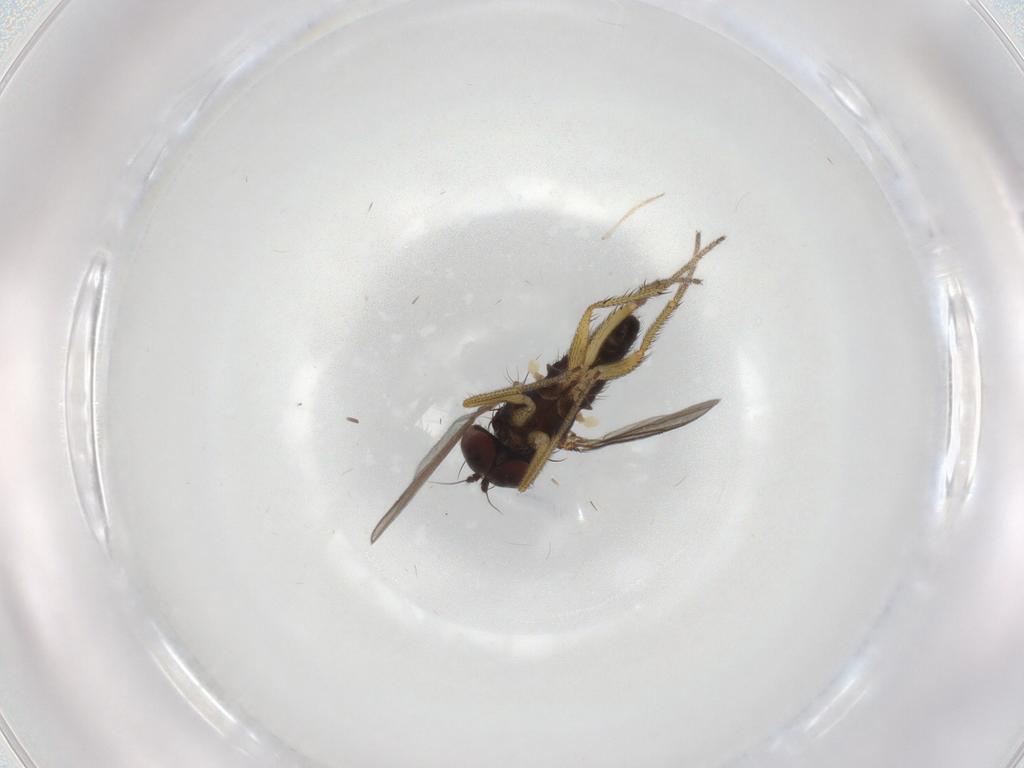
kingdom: Animalia
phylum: Arthropoda
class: Insecta
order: Diptera
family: Chironomidae
